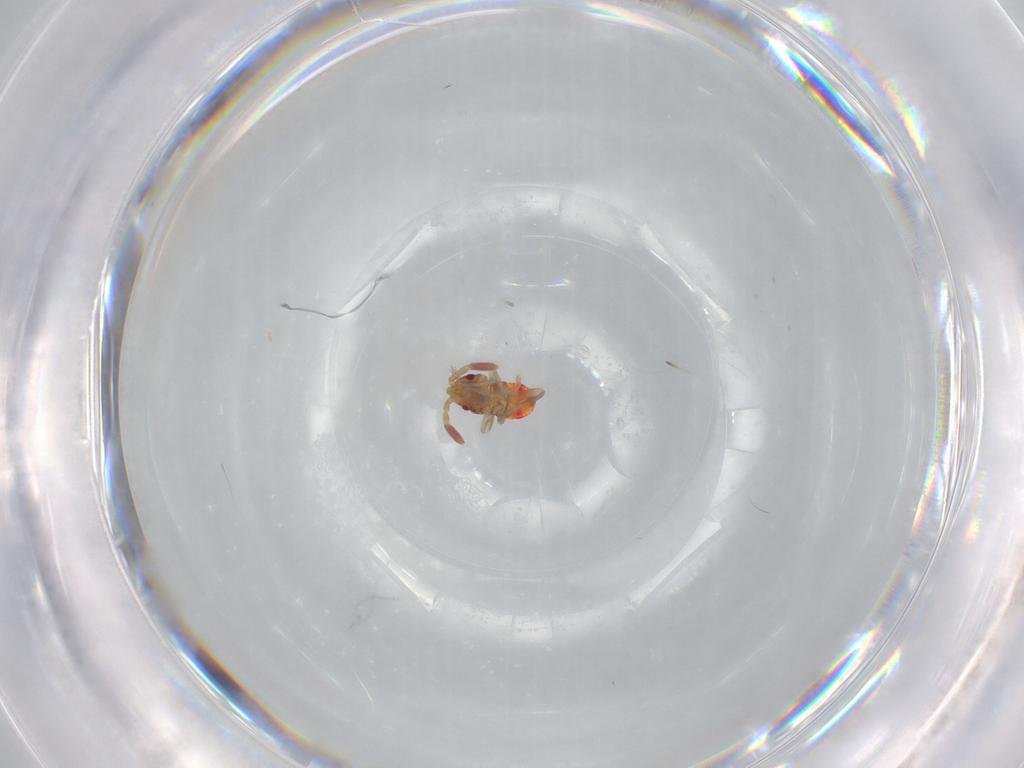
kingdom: Animalia
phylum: Arthropoda
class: Insecta
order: Hemiptera
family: Rhyparochromidae
